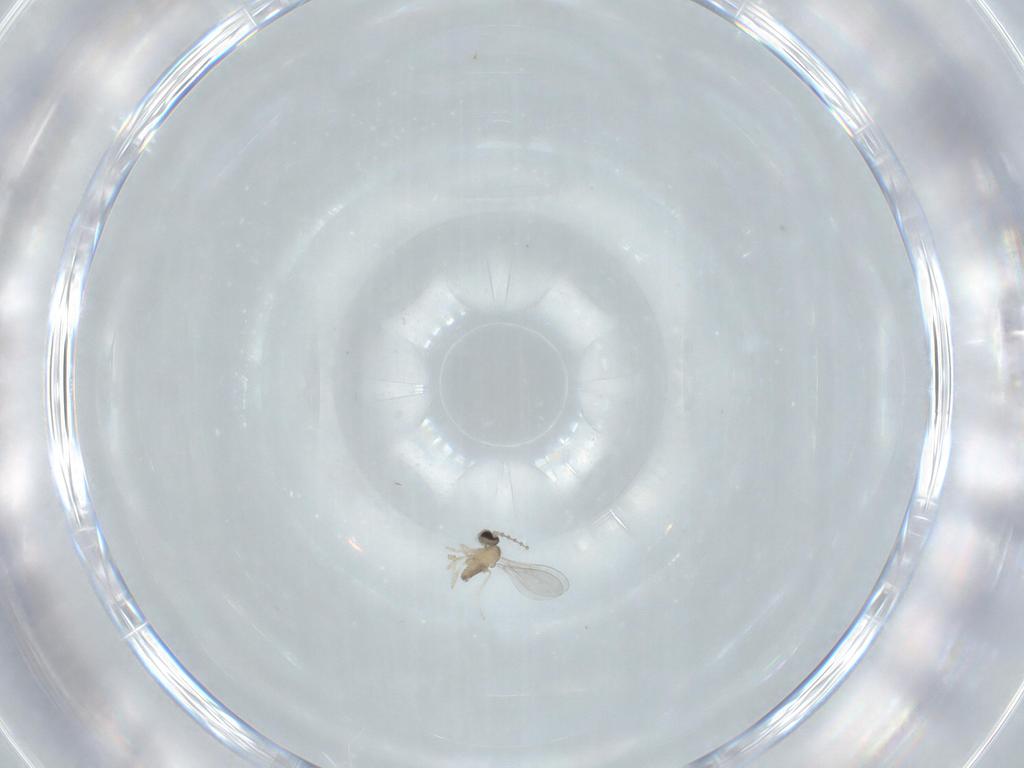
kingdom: Animalia
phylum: Arthropoda
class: Insecta
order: Diptera
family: Cecidomyiidae
